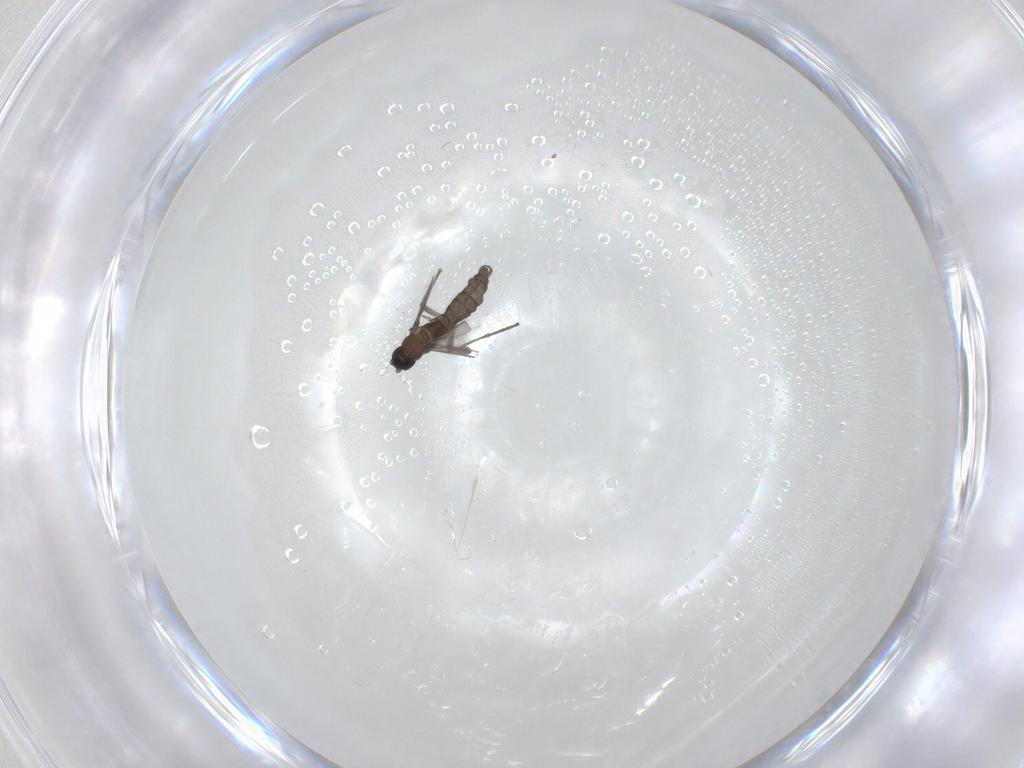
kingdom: Animalia
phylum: Arthropoda
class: Insecta
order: Diptera
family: Sciaridae
